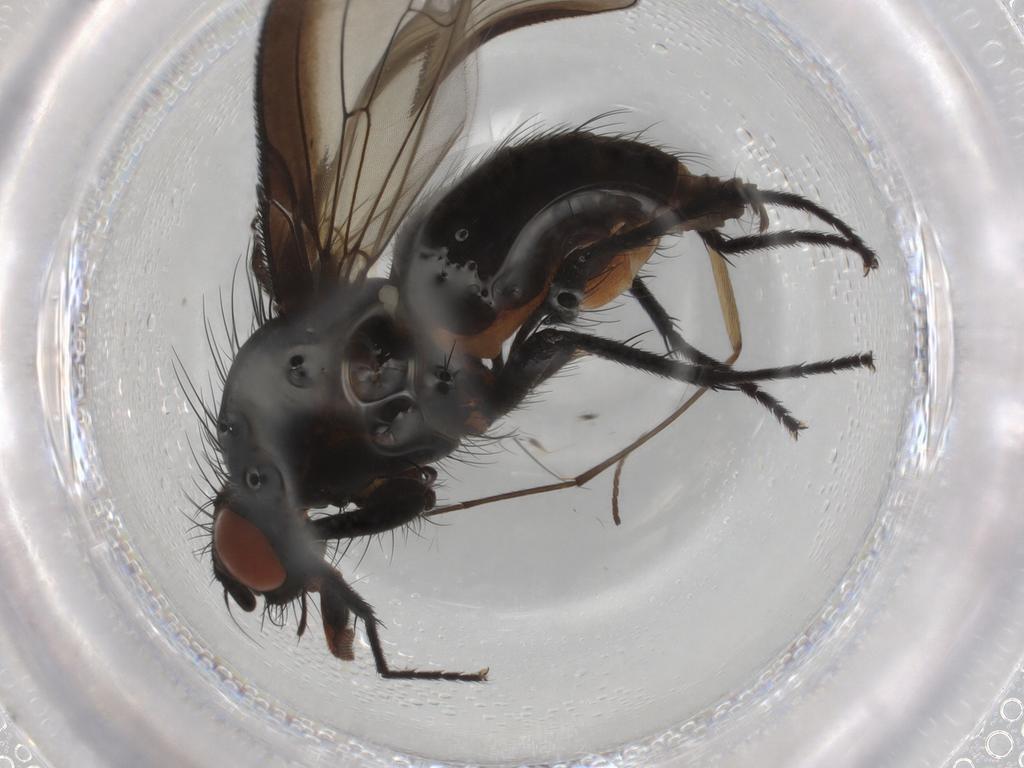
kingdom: Animalia
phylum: Arthropoda
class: Insecta
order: Diptera
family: Anthomyiidae
